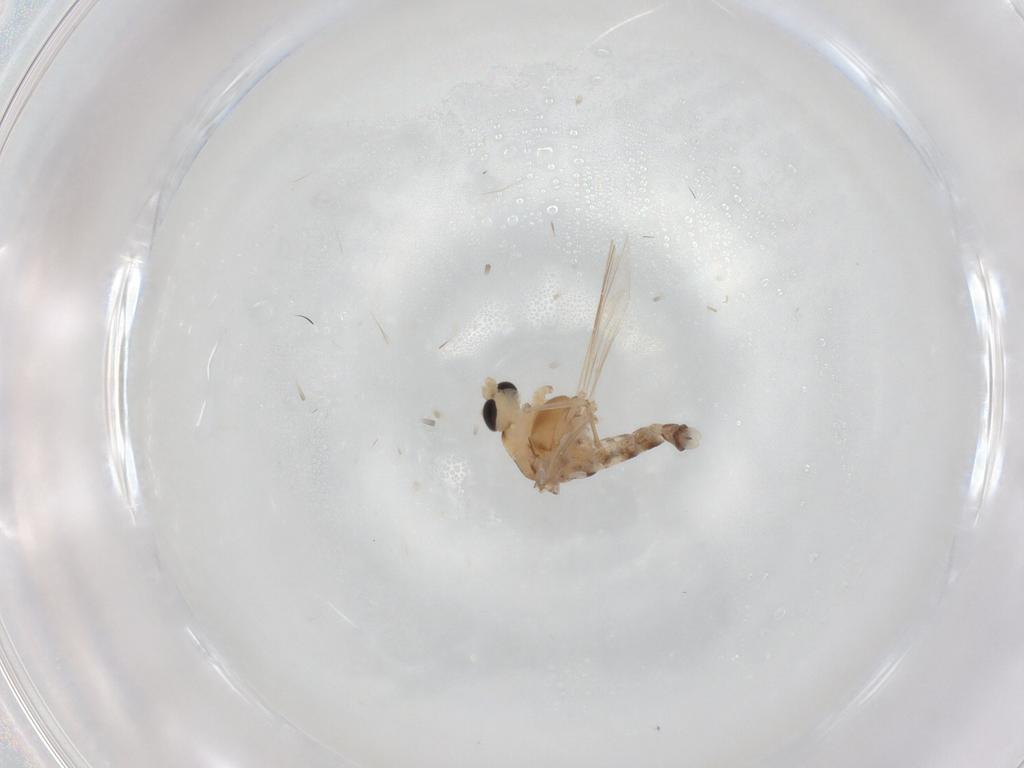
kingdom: Animalia
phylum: Arthropoda
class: Insecta
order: Diptera
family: Chironomidae
